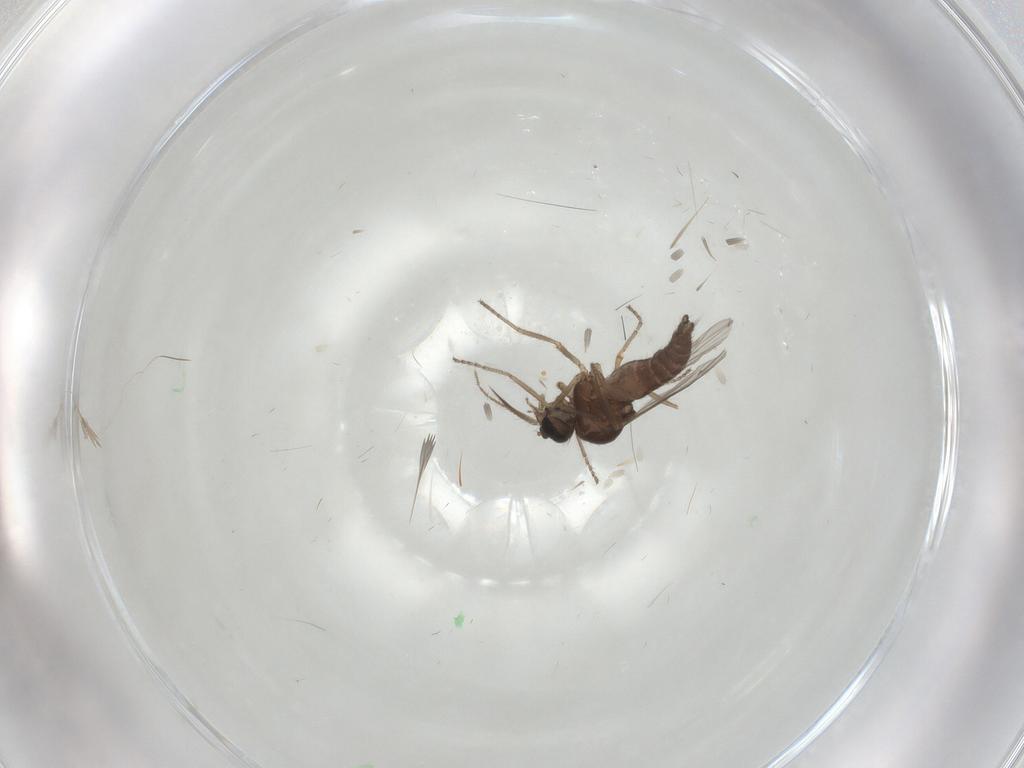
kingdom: Animalia
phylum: Arthropoda
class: Insecta
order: Diptera
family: Ceratopogonidae
